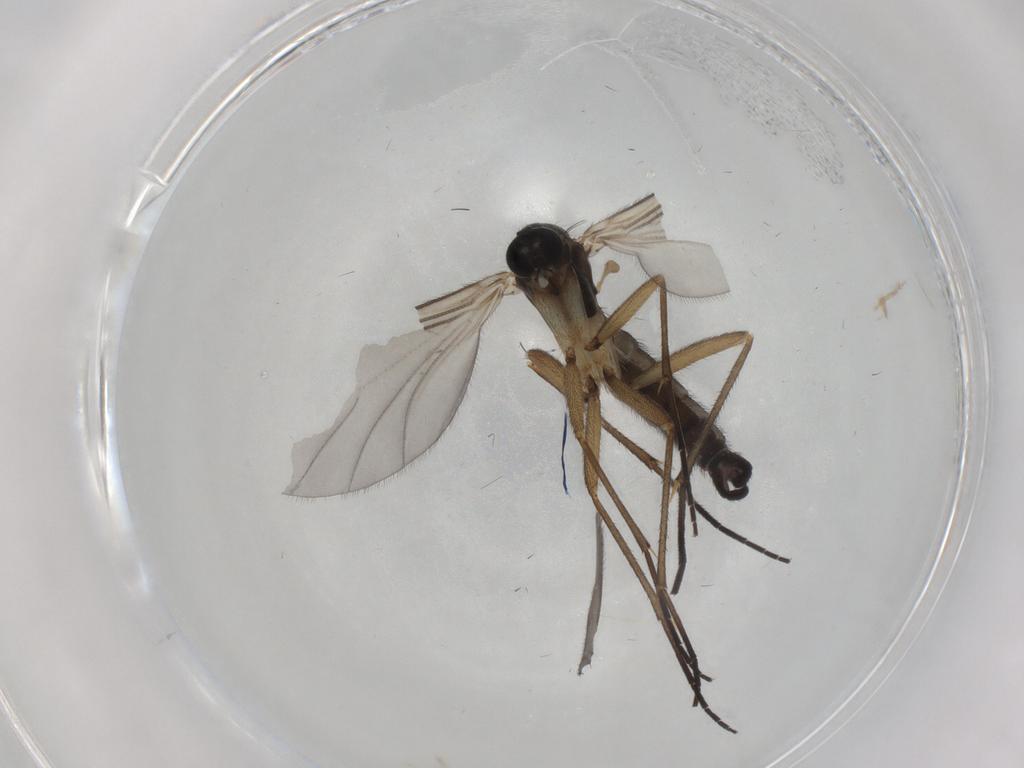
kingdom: Animalia
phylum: Arthropoda
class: Insecta
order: Diptera
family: Sciaridae
